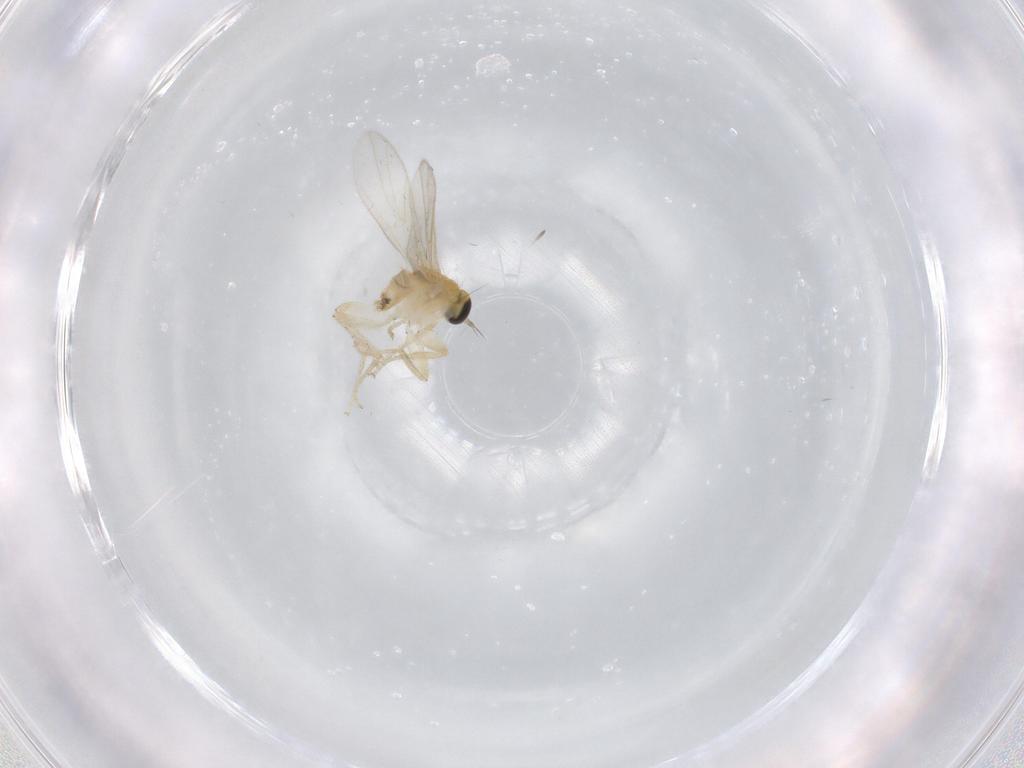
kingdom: Animalia
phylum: Arthropoda
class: Insecta
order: Diptera
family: Hybotidae
